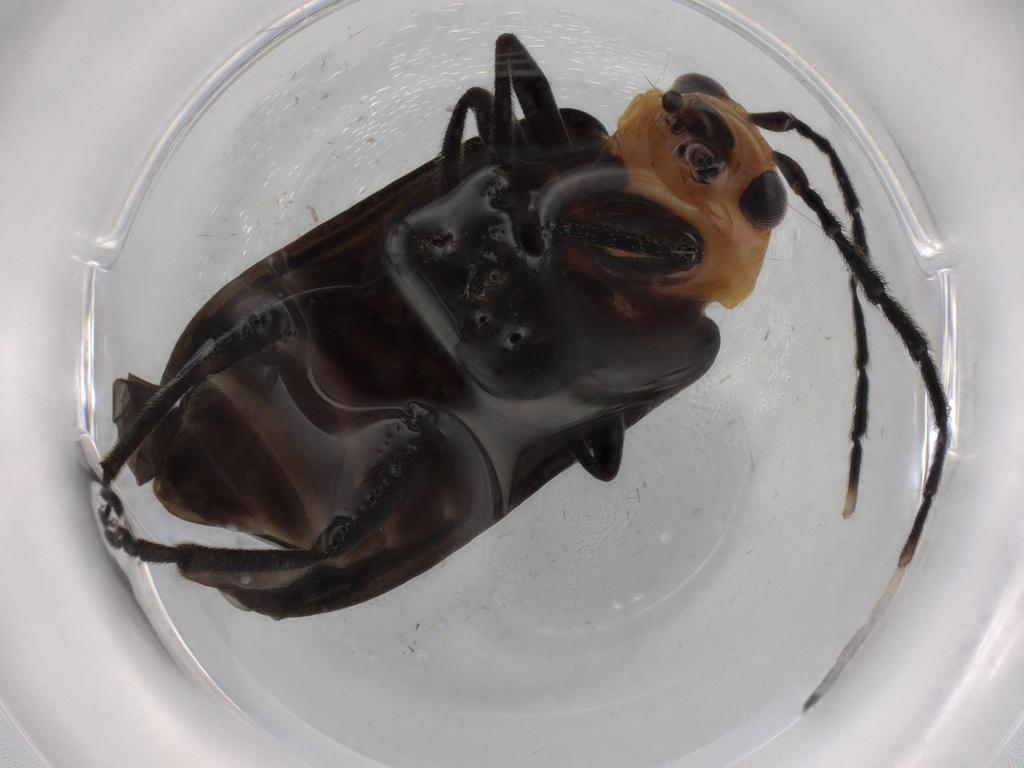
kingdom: Animalia
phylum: Arthropoda
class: Insecta
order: Coleoptera
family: Chrysomelidae
